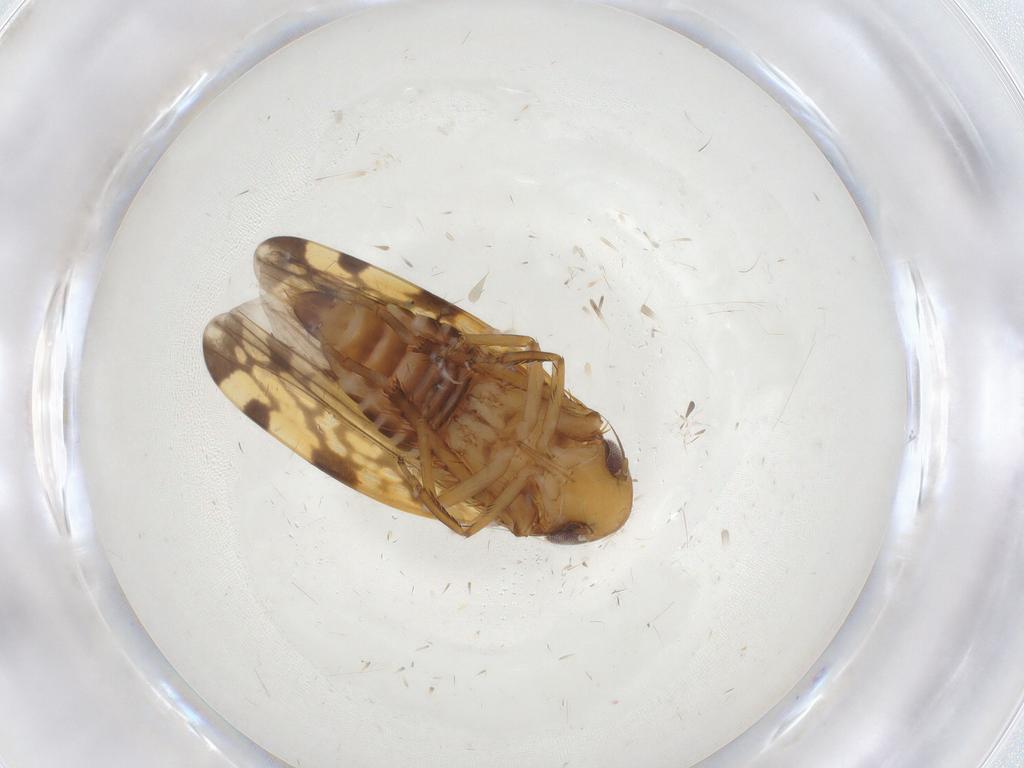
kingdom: Animalia
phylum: Arthropoda
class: Insecta
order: Hemiptera
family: Cicadellidae
